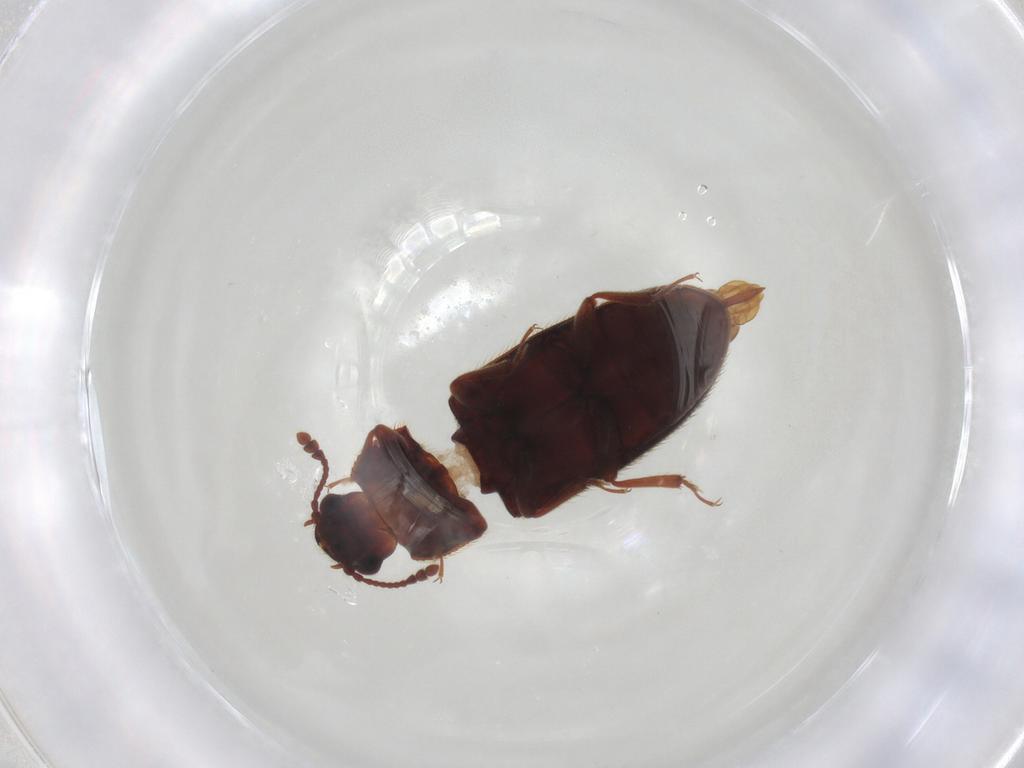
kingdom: Animalia
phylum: Arthropoda
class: Insecta
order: Coleoptera
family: Biphyllidae
